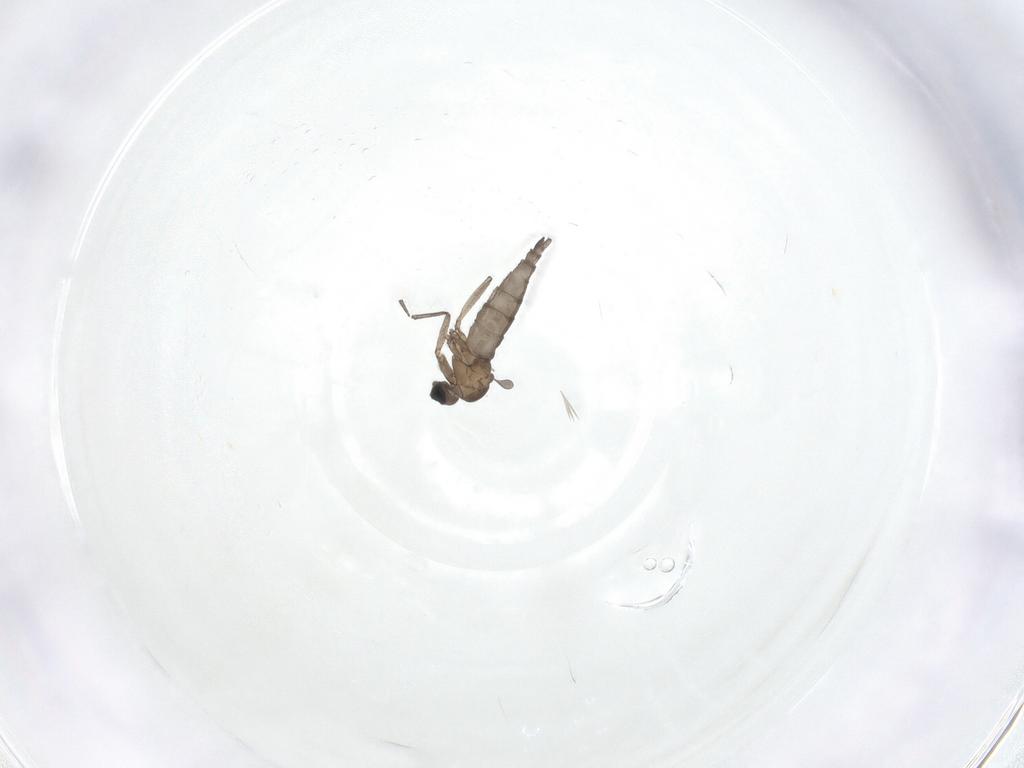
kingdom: Animalia
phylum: Arthropoda
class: Insecta
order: Diptera
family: Sciaridae
